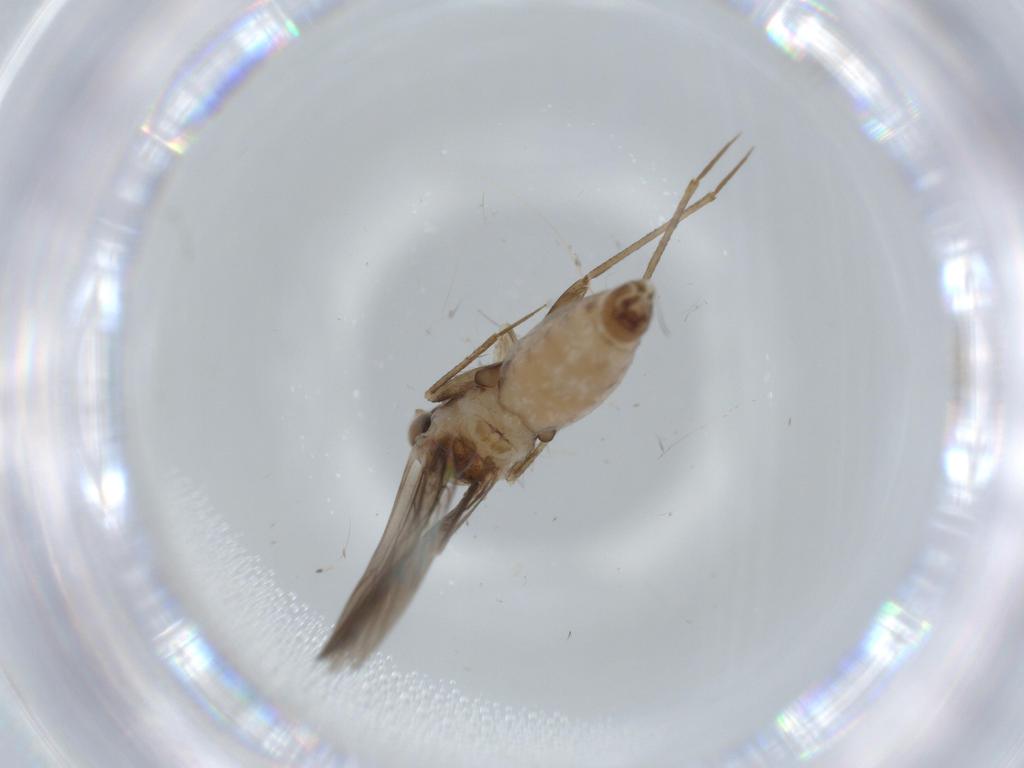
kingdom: Animalia
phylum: Arthropoda
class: Insecta
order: Psocodea
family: Lepidopsocidae
